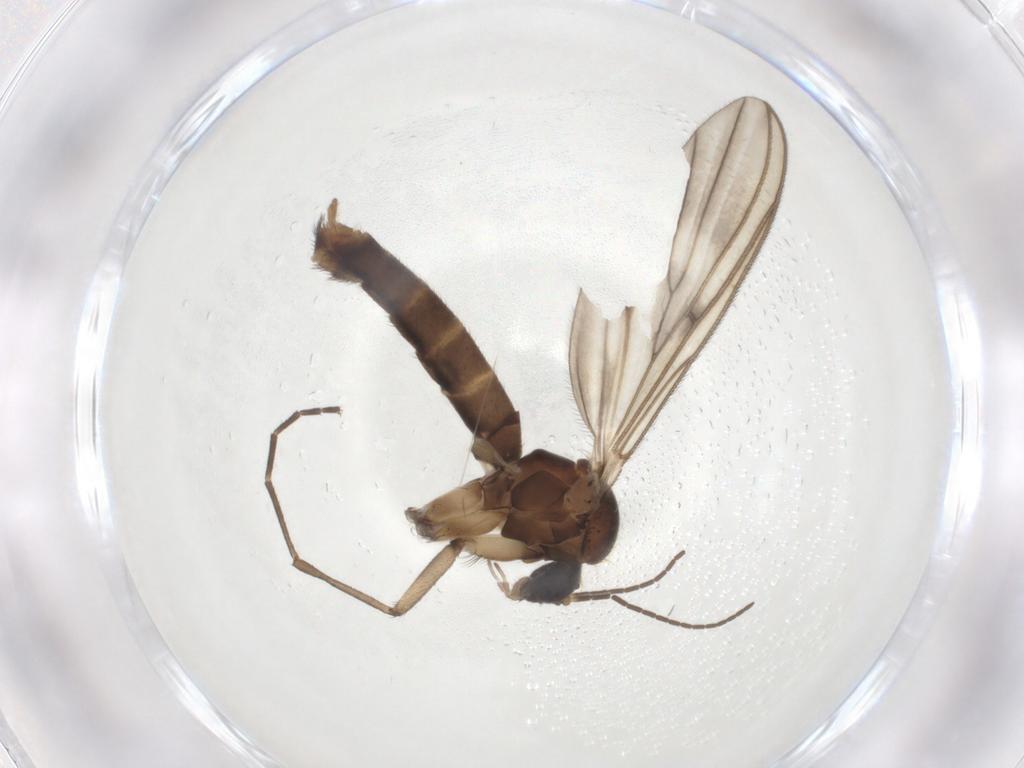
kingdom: Animalia
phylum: Arthropoda
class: Insecta
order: Diptera
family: Mycetophilidae
